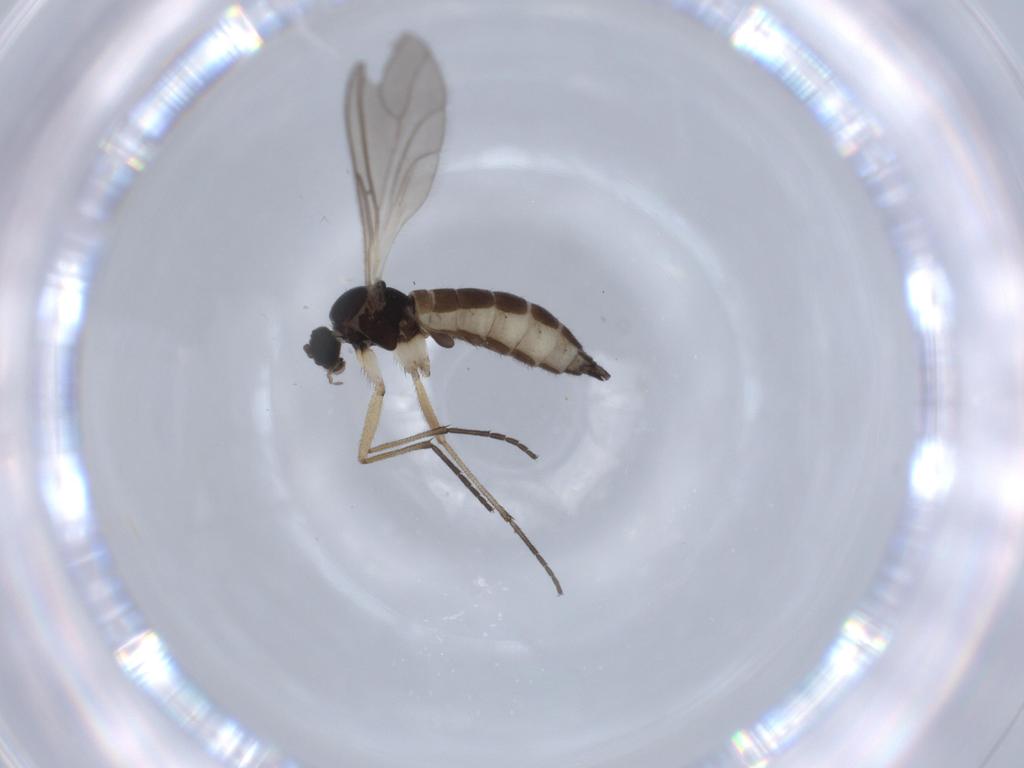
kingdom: Animalia
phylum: Arthropoda
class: Insecta
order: Diptera
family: Sciaridae
